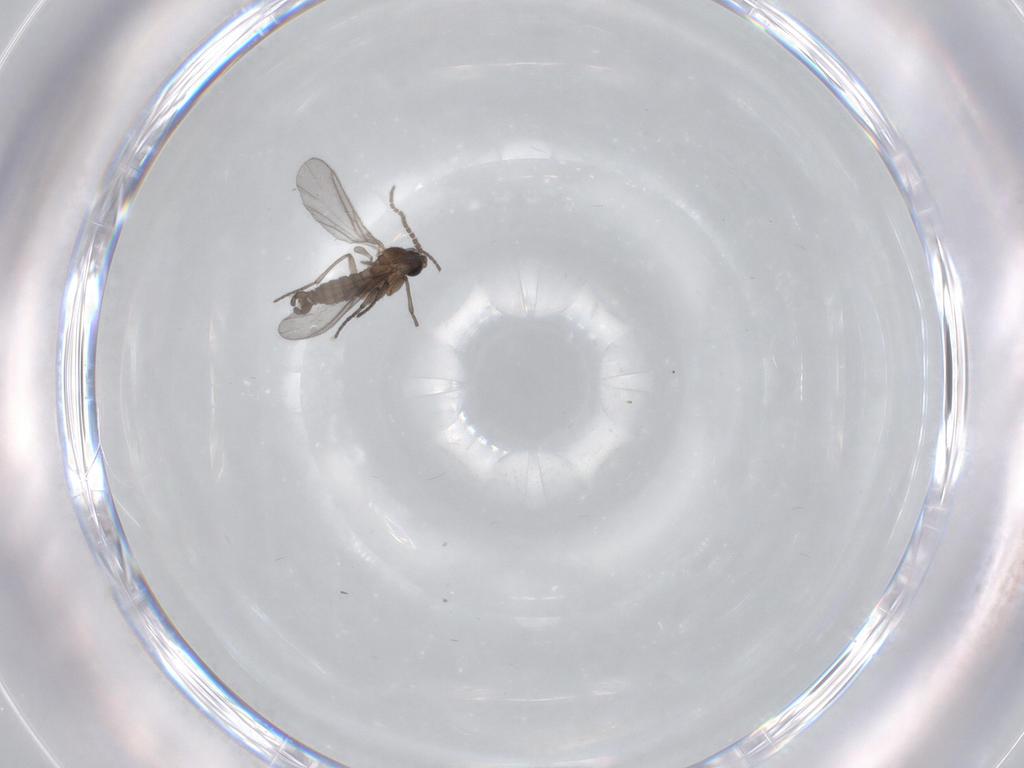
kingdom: Animalia
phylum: Arthropoda
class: Insecta
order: Diptera
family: Sciaridae
